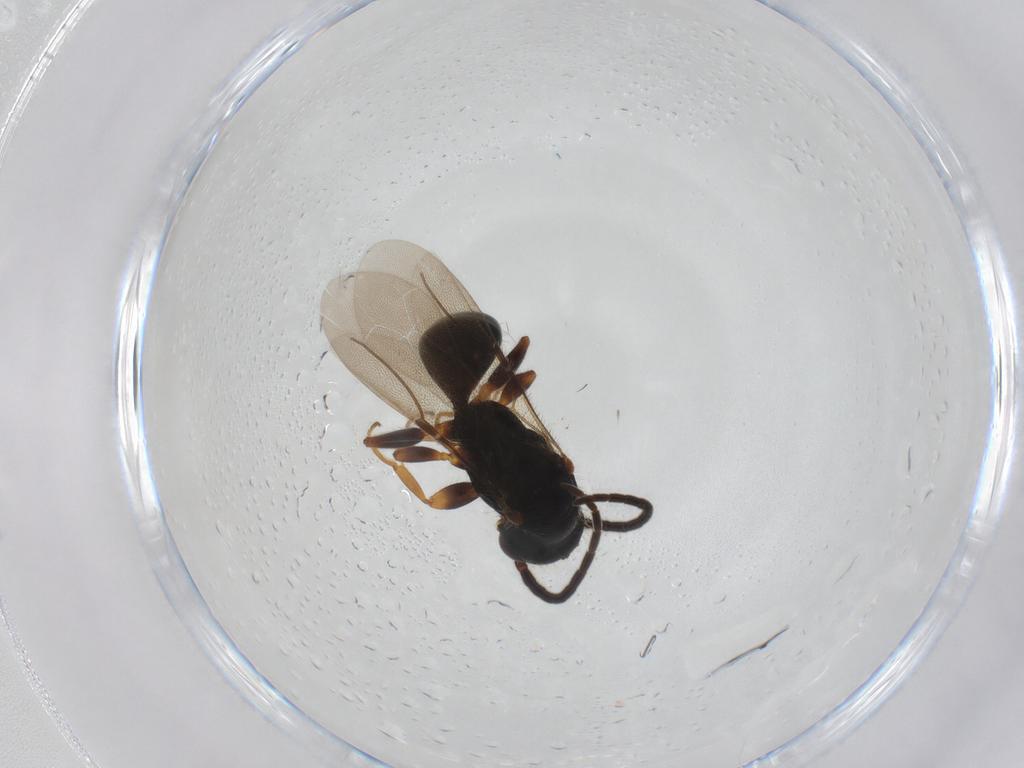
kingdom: Animalia
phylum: Arthropoda
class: Insecta
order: Hymenoptera
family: Bethylidae
